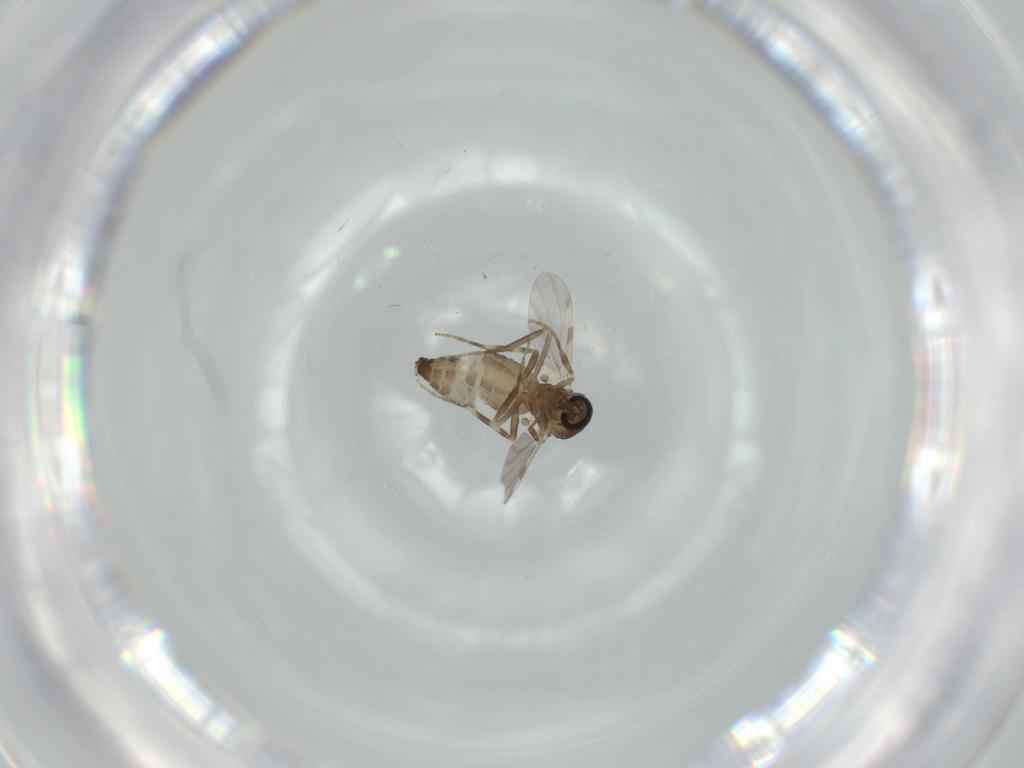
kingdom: Animalia
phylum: Arthropoda
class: Insecta
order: Diptera
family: Ceratopogonidae
